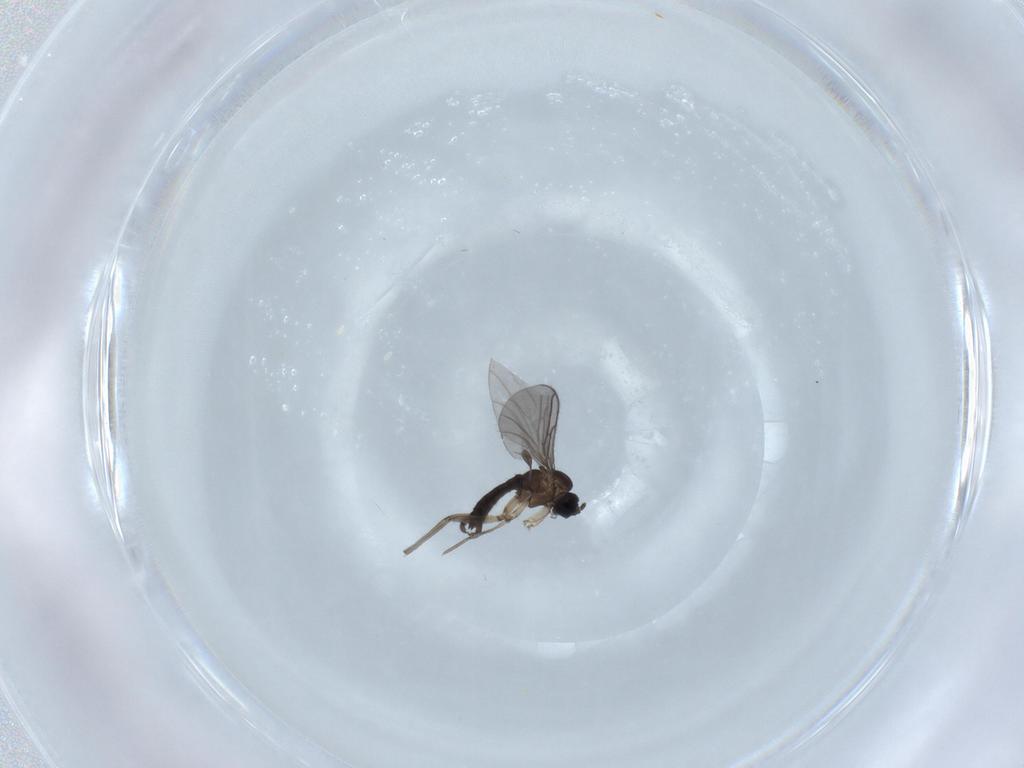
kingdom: Animalia
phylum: Arthropoda
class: Insecta
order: Diptera
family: Sciaridae
